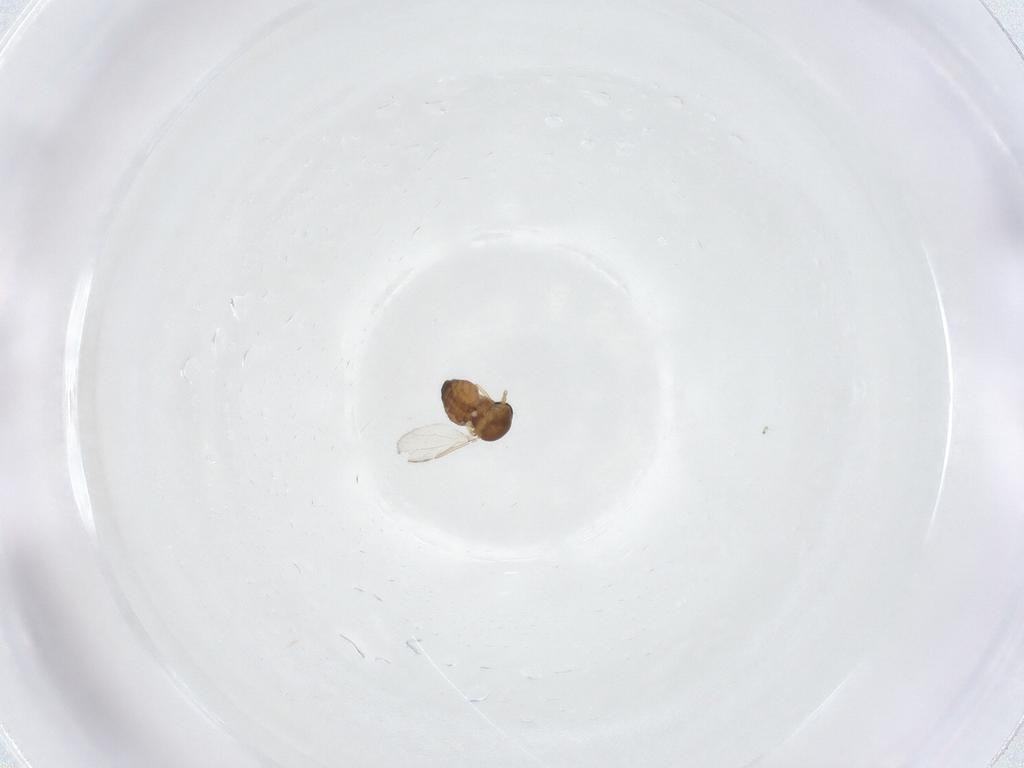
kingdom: Animalia
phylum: Arthropoda
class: Insecta
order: Diptera
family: Ceratopogonidae
